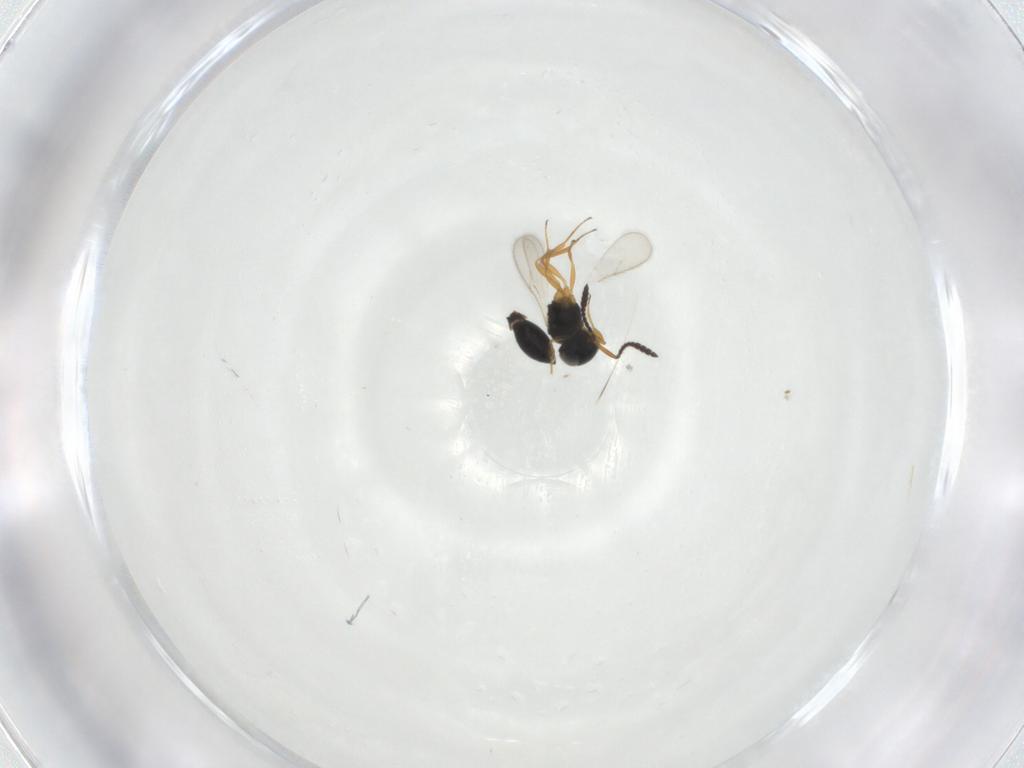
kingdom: Animalia
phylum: Arthropoda
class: Insecta
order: Hymenoptera
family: Scelionidae
